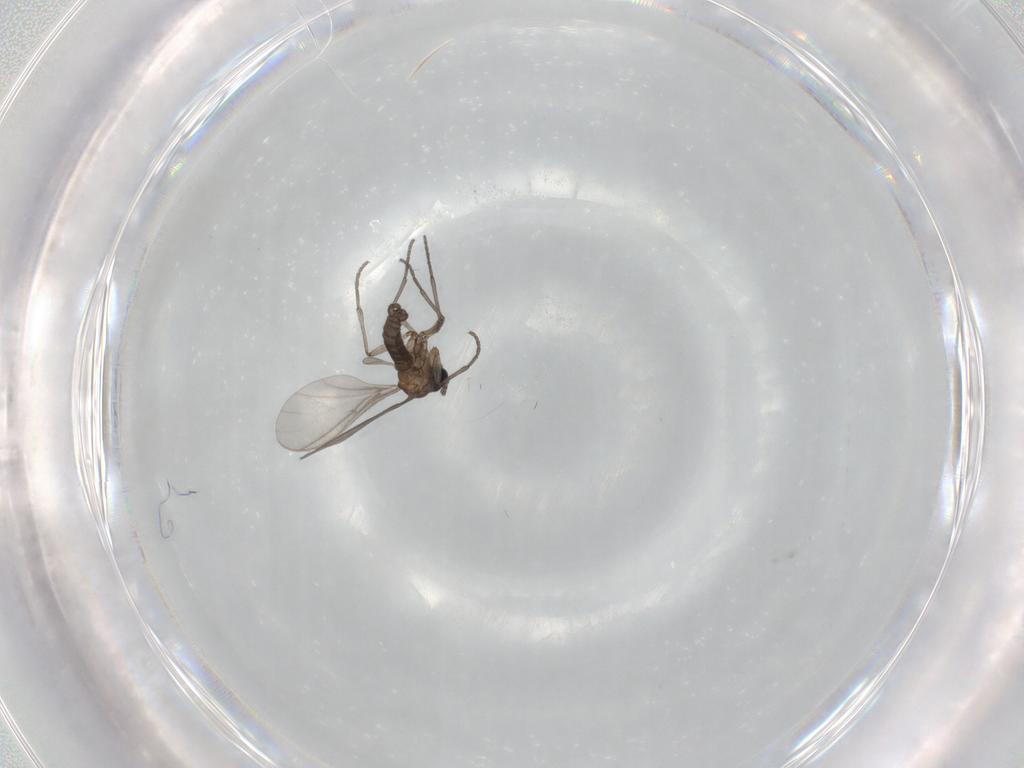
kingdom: Animalia
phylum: Arthropoda
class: Insecta
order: Diptera
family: Sciaridae
